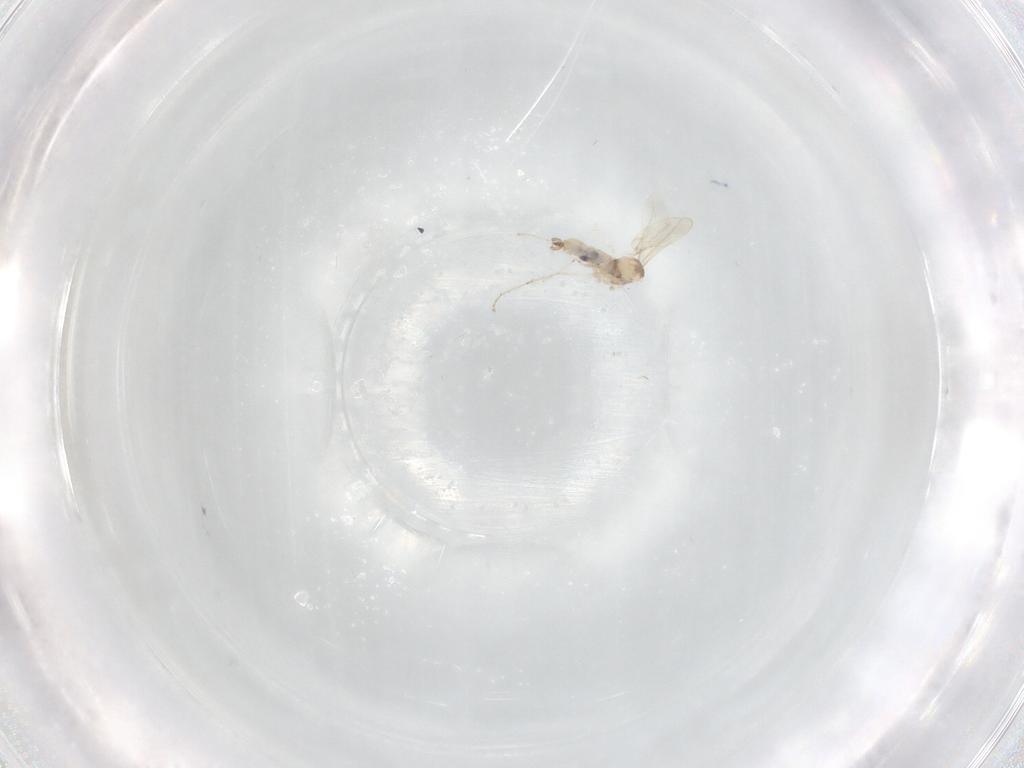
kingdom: Animalia
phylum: Arthropoda
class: Insecta
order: Diptera
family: Cecidomyiidae
